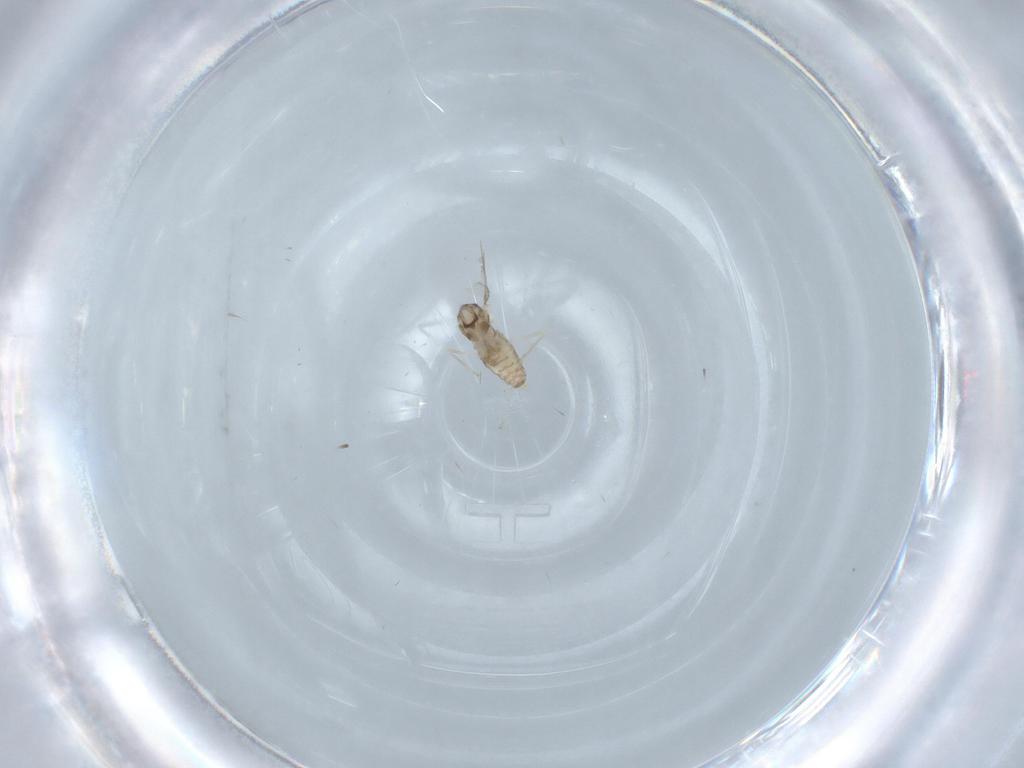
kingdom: Animalia
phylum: Arthropoda
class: Insecta
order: Diptera
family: Cecidomyiidae
